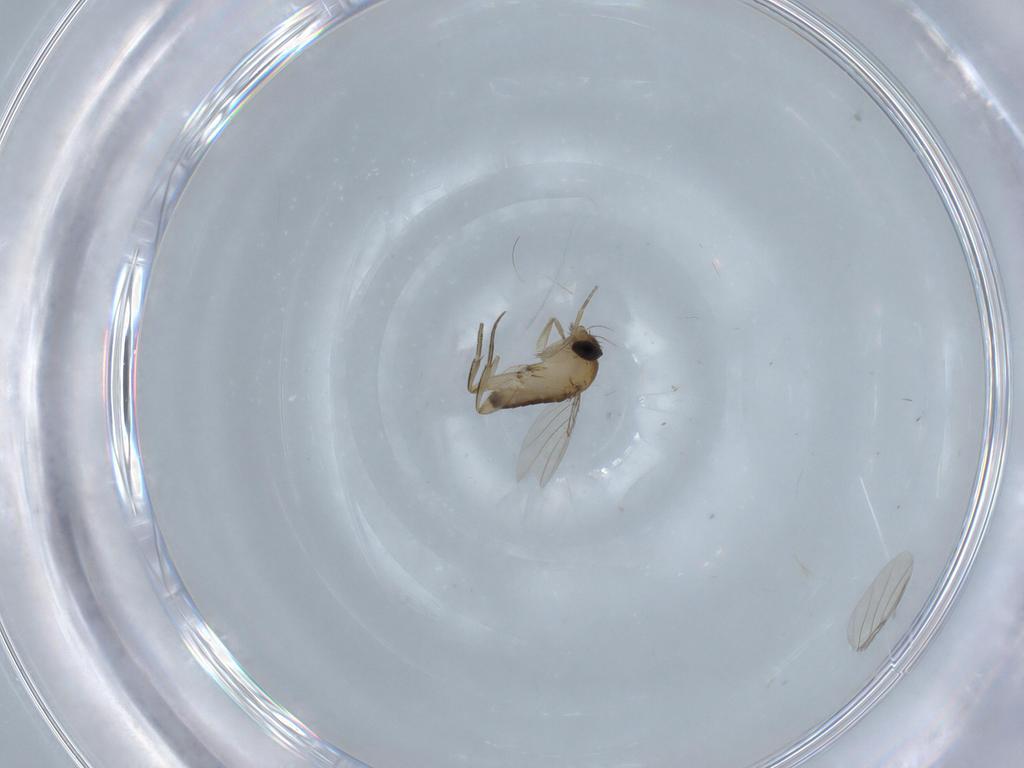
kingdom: Animalia
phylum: Arthropoda
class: Insecta
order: Diptera
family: Phoridae
